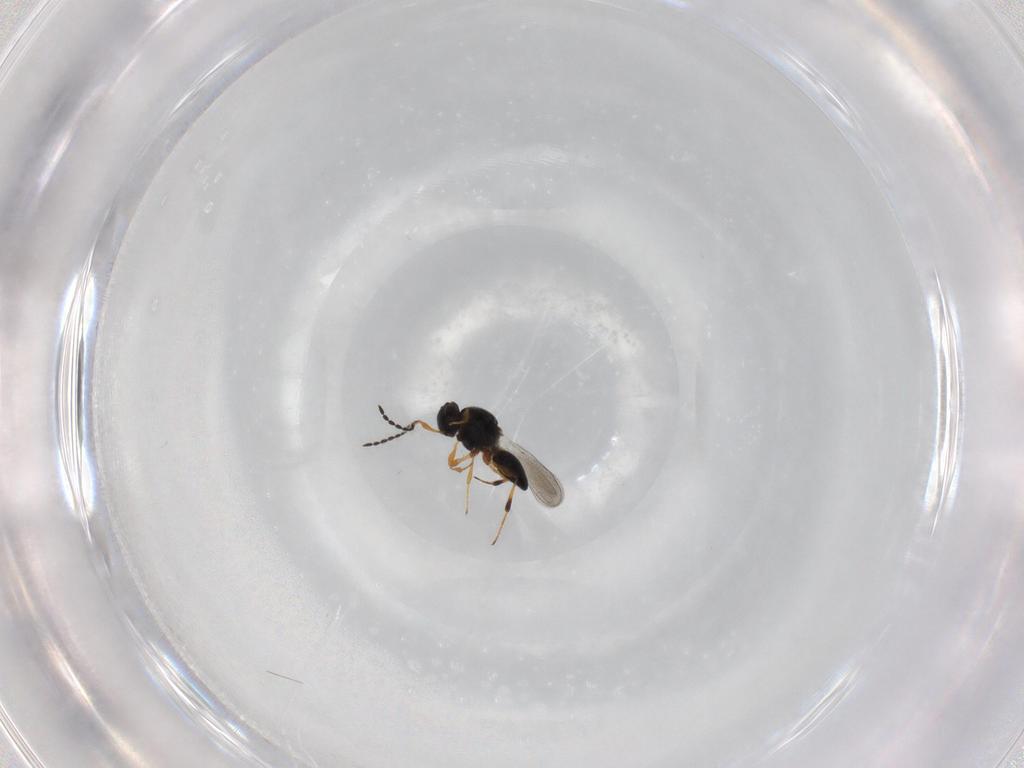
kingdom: Animalia
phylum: Arthropoda
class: Insecta
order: Hymenoptera
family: Platygastridae
